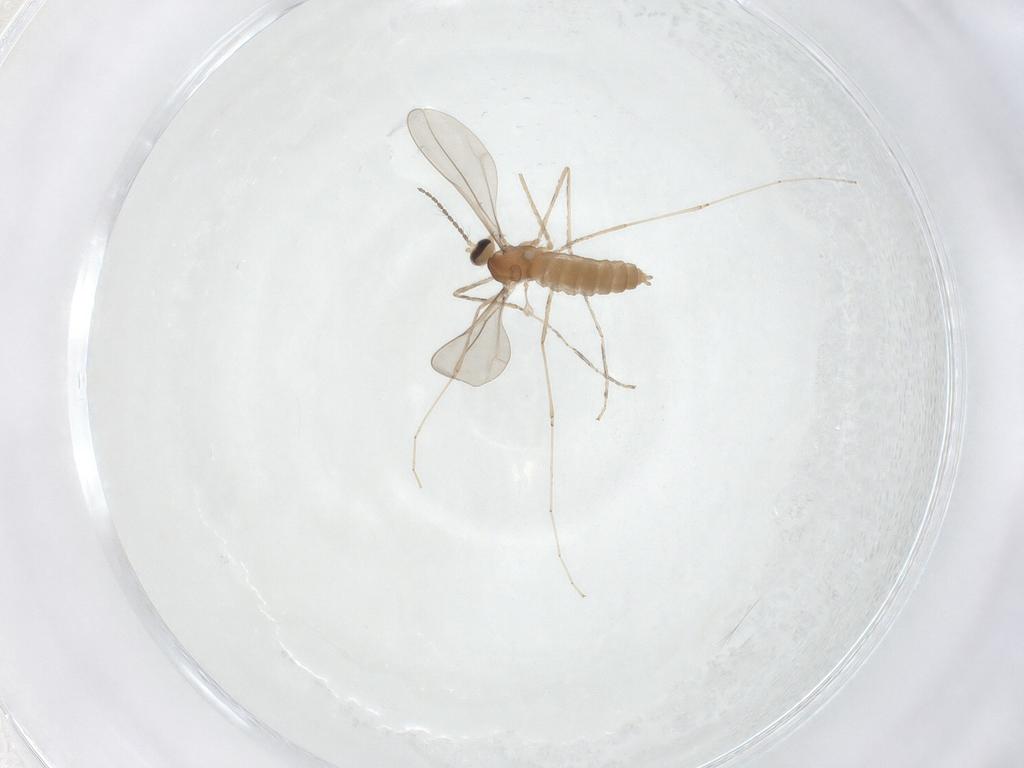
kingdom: Animalia
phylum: Arthropoda
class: Insecta
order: Diptera
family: Cecidomyiidae
